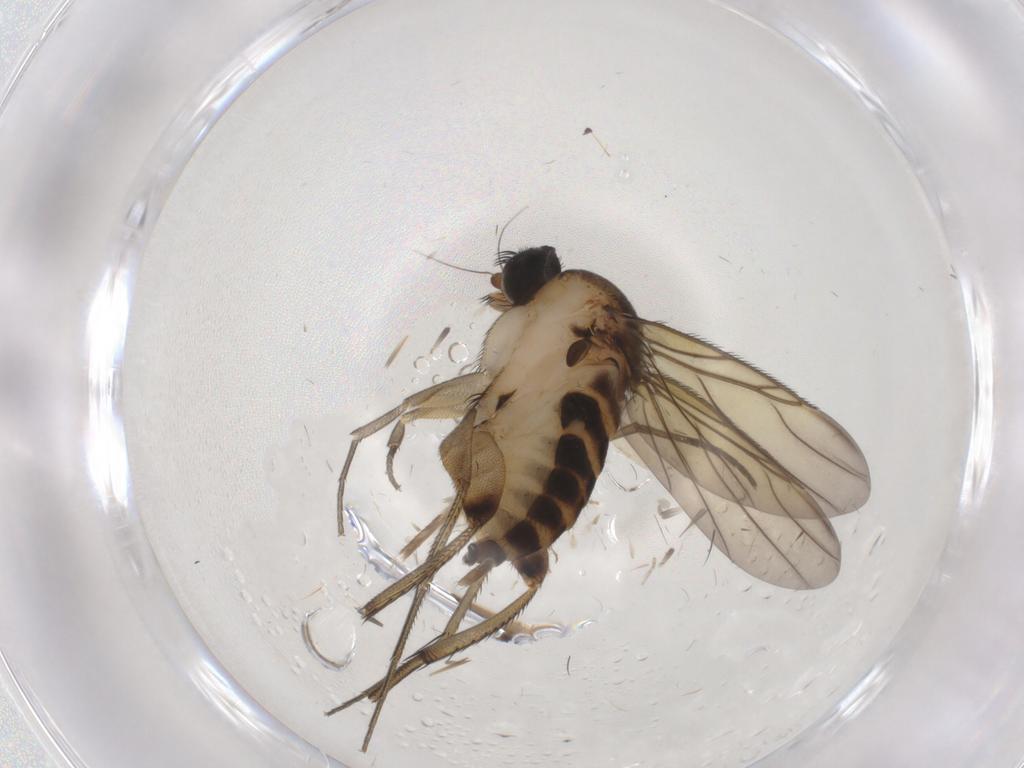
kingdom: Animalia
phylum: Arthropoda
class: Insecta
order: Diptera
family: Sciaridae
